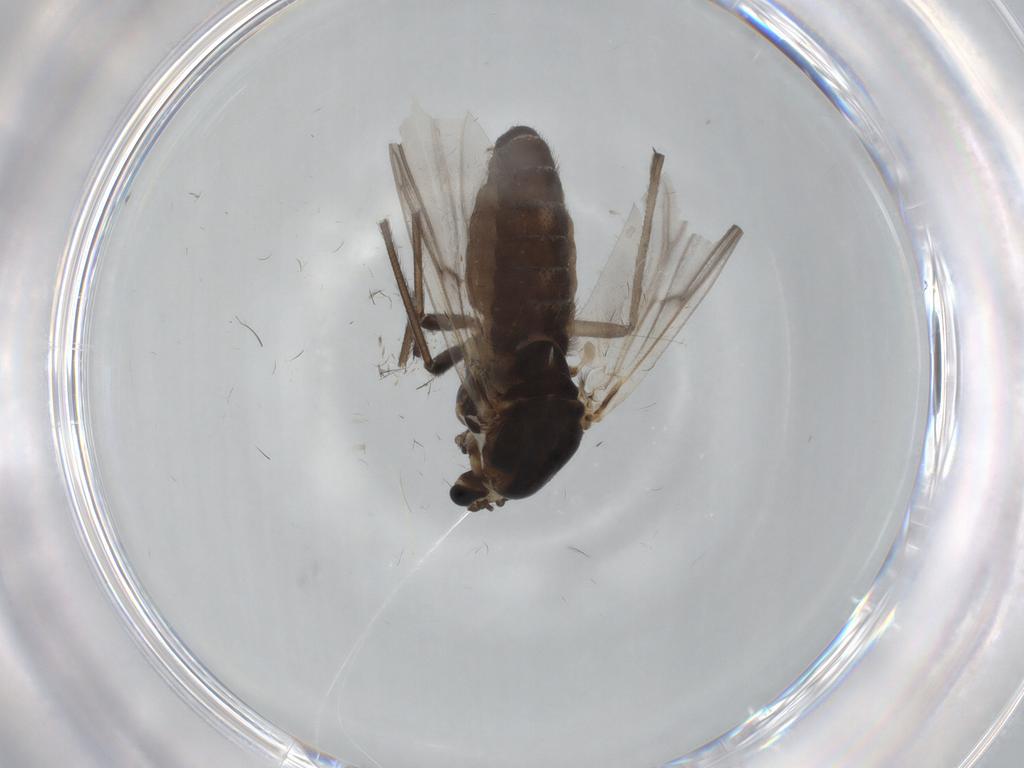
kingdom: Animalia
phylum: Arthropoda
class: Insecta
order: Diptera
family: Chironomidae
